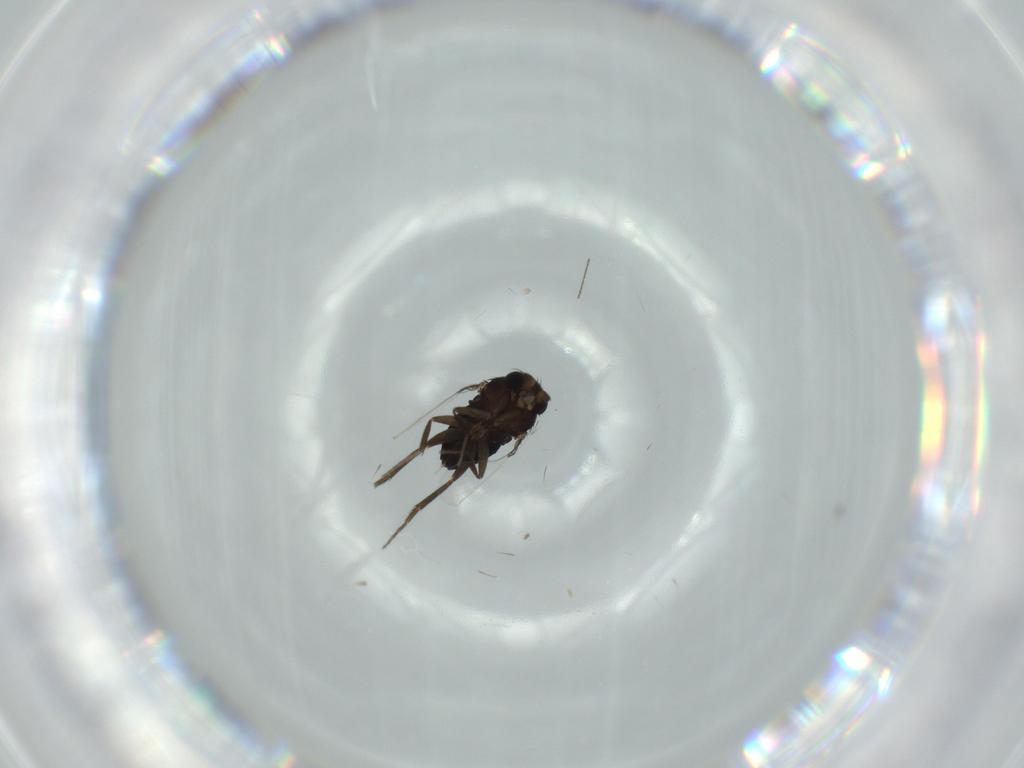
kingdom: Animalia
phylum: Arthropoda
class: Insecta
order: Diptera
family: Phoridae
